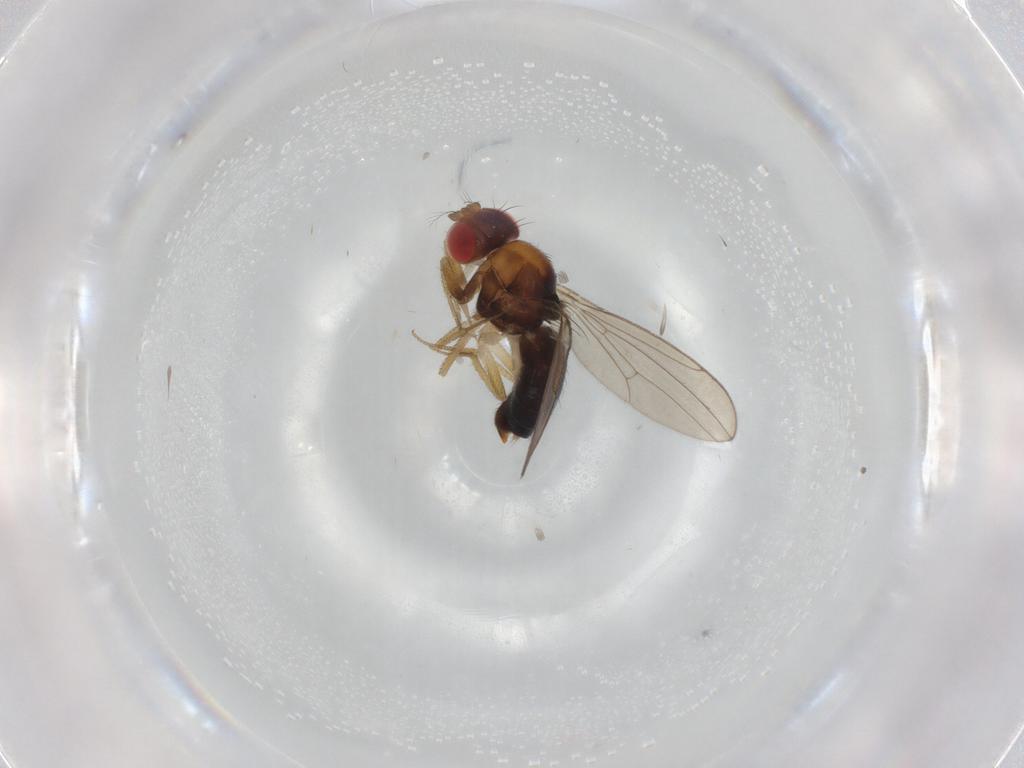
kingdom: Animalia
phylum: Arthropoda
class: Insecta
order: Diptera
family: Drosophilidae
